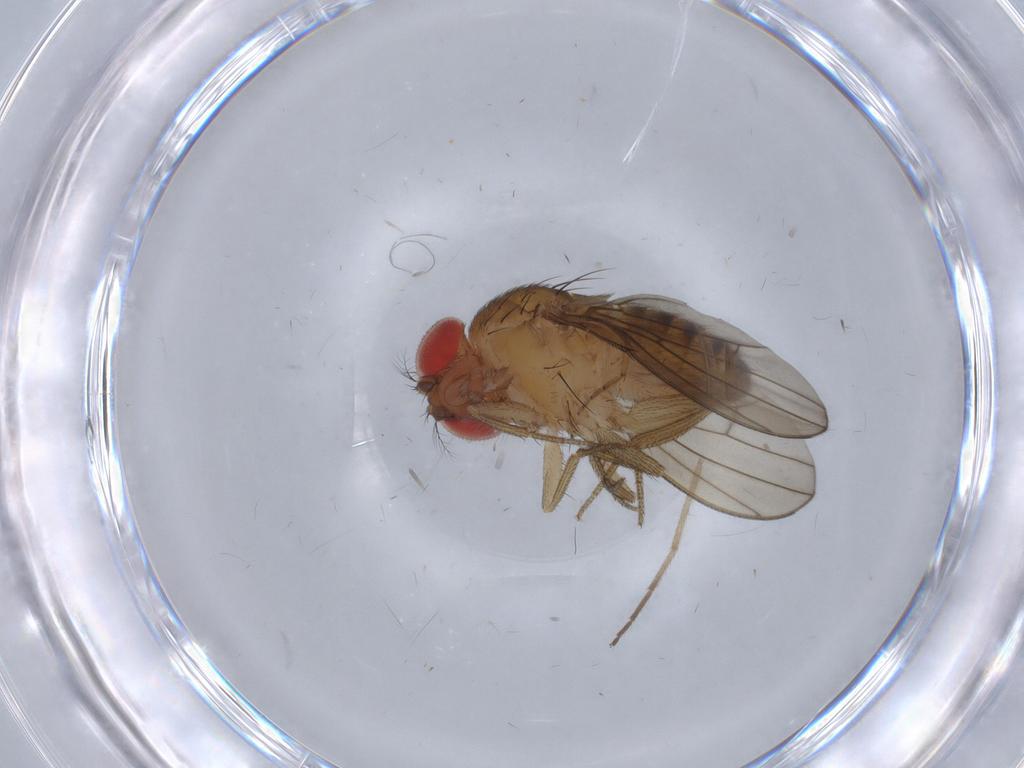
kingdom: Animalia
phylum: Arthropoda
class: Insecta
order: Diptera
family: Drosophilidae
